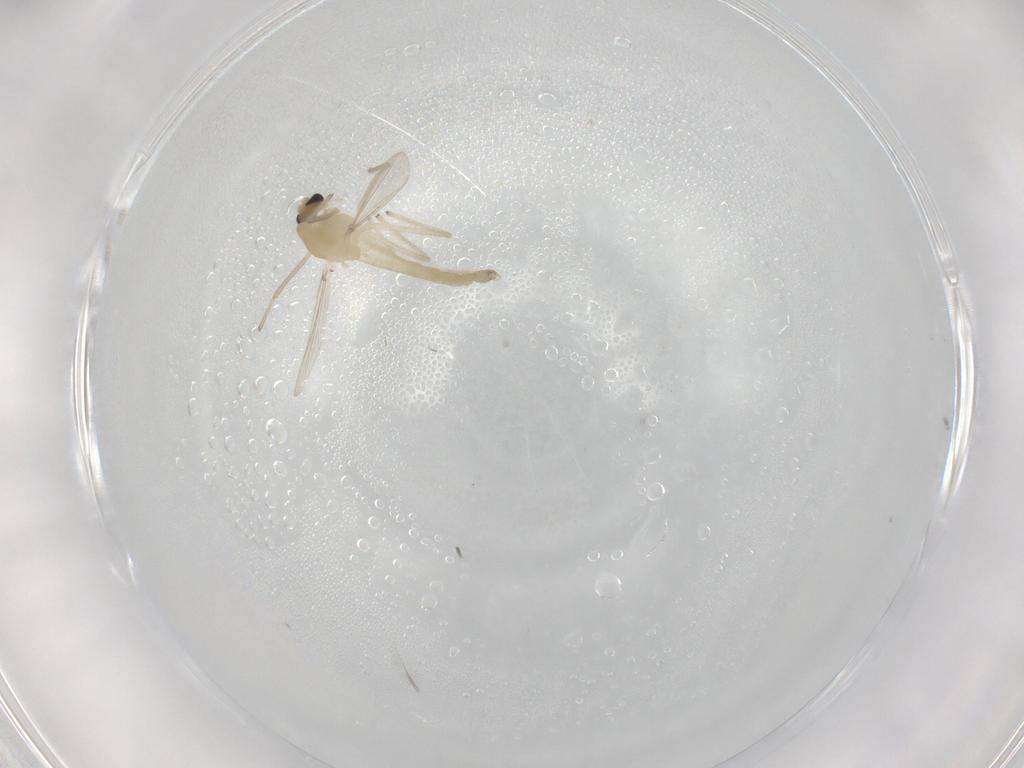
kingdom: Animalia
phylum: Arthropoda
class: Insecta
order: Diptera
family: Chironomidae
